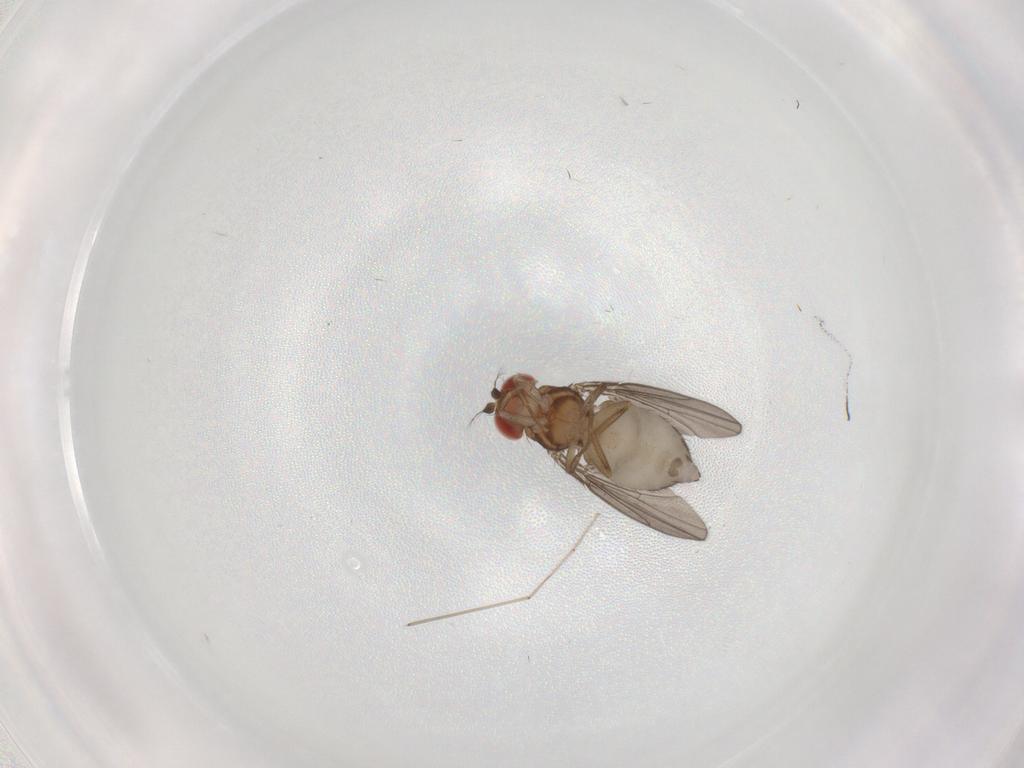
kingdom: Animalia
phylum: Arthropoda
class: Insecta
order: Diptera
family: Drosophilidae
